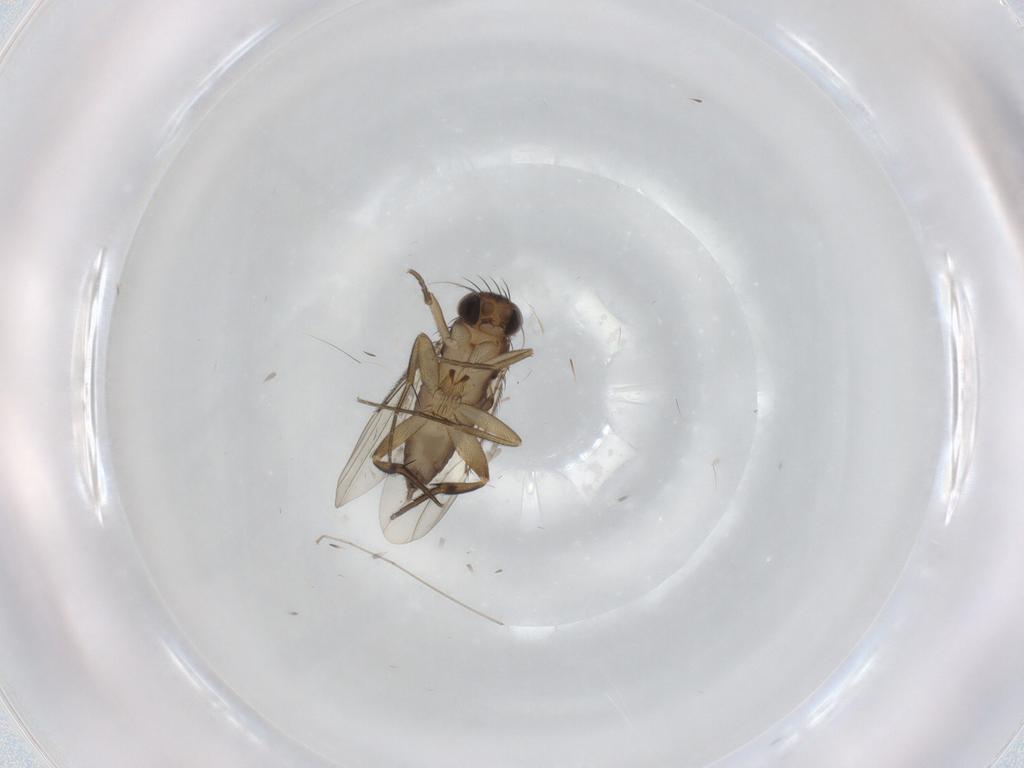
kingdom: Animalia
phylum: Arthropoda
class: Insecta
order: Diptera
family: Phoridae
